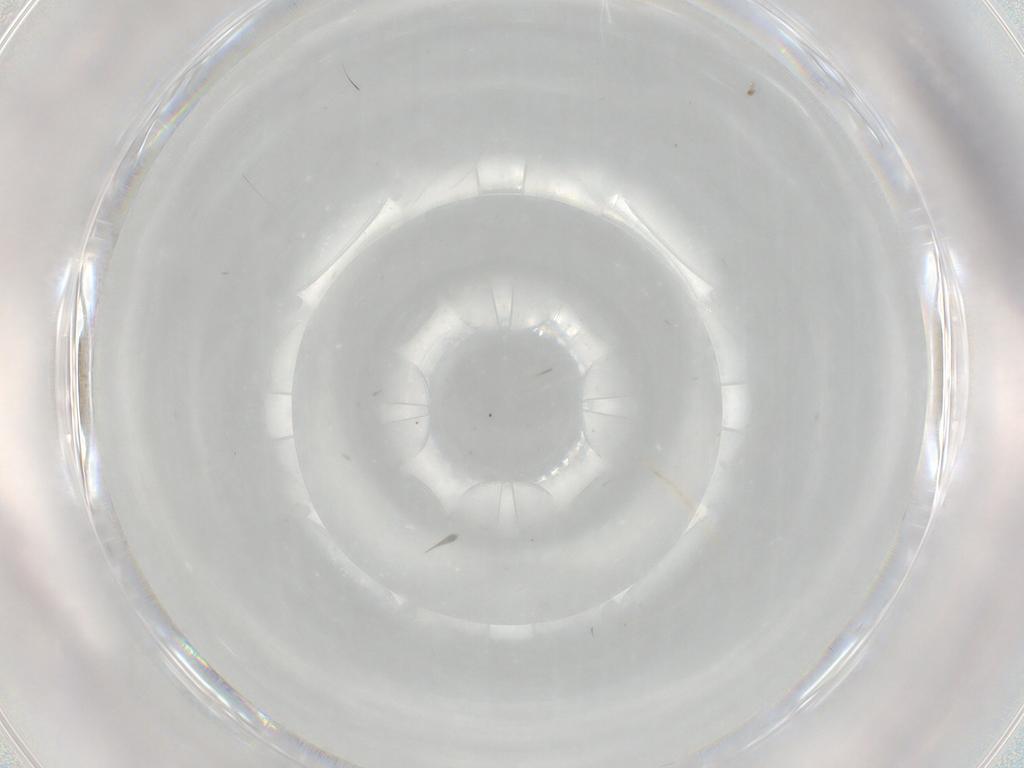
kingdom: Animalia
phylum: Arthropoda
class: Insecta
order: Diptera
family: Cecidomyiidae
